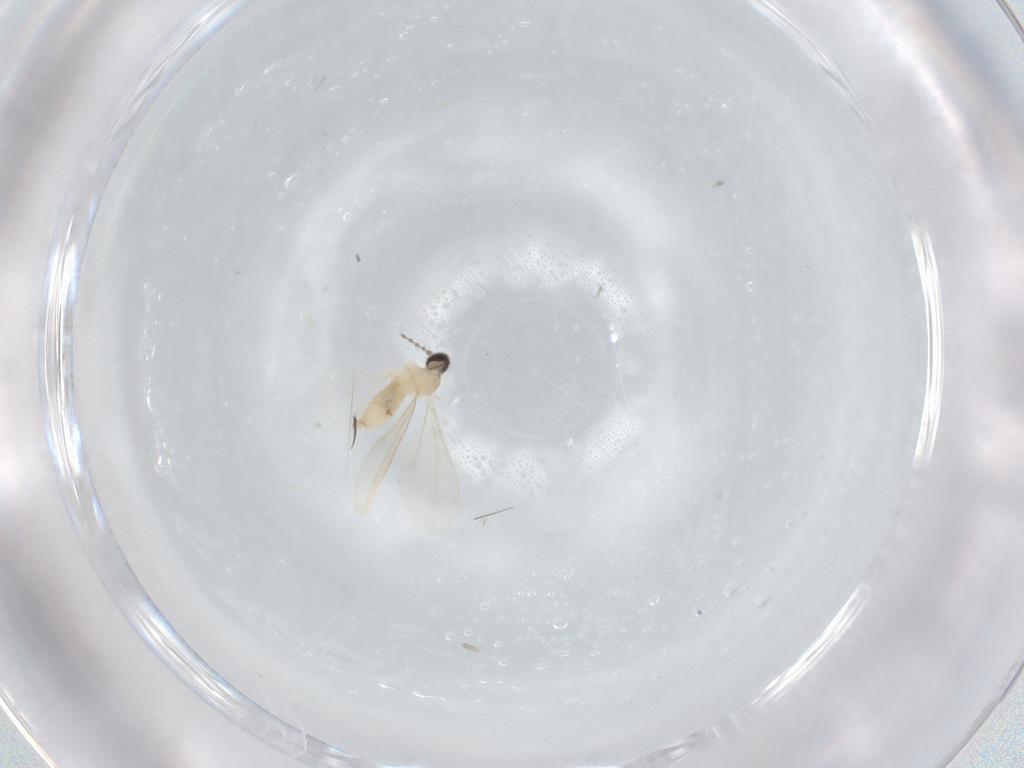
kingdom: Animalia
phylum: Arthropoda
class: Insecta
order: Diptera
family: Cecidomyiidae
